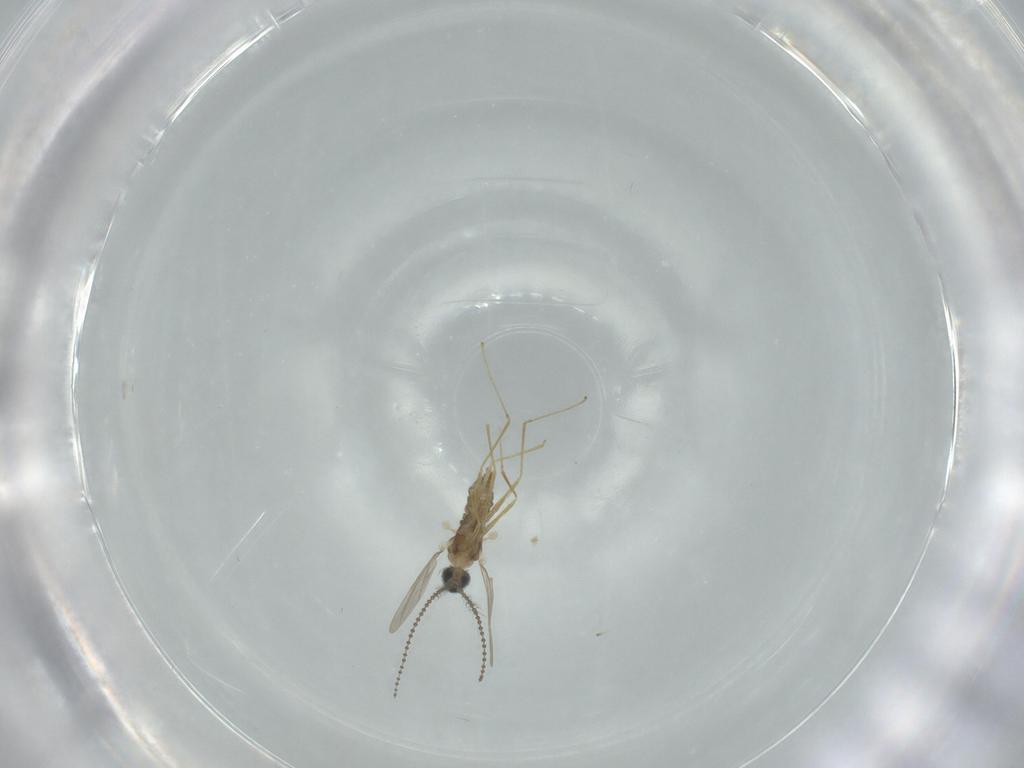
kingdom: Animalia
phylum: Arthropoda
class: Insecta
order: Diptera
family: Cecidomyiidae
